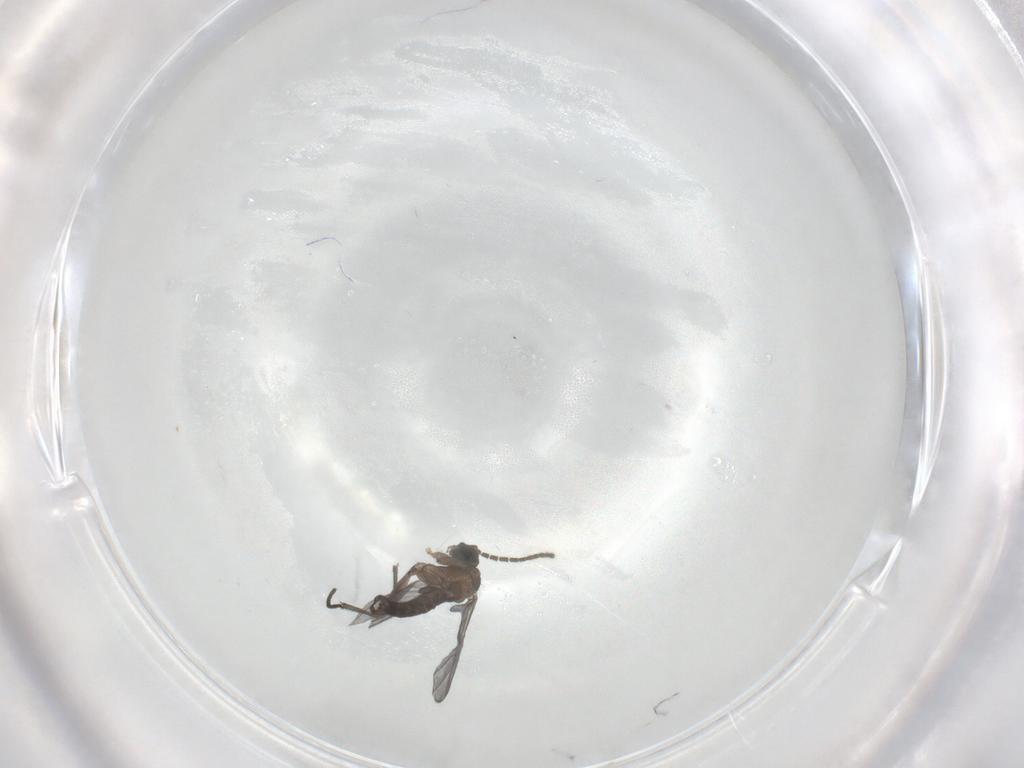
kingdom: Animalia
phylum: Arthropoda
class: Insecta
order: Diptera
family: Sciaridae
